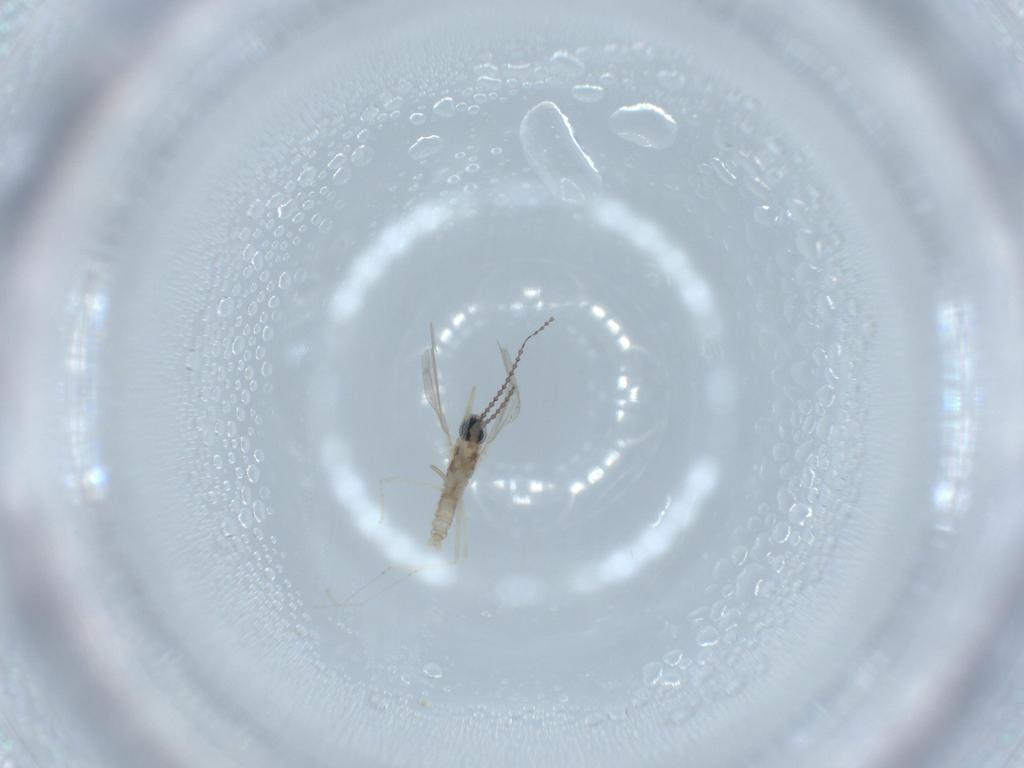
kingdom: Animalia
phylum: Arthropoda
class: Insecta
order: Diptera
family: Cecidomyiidae
